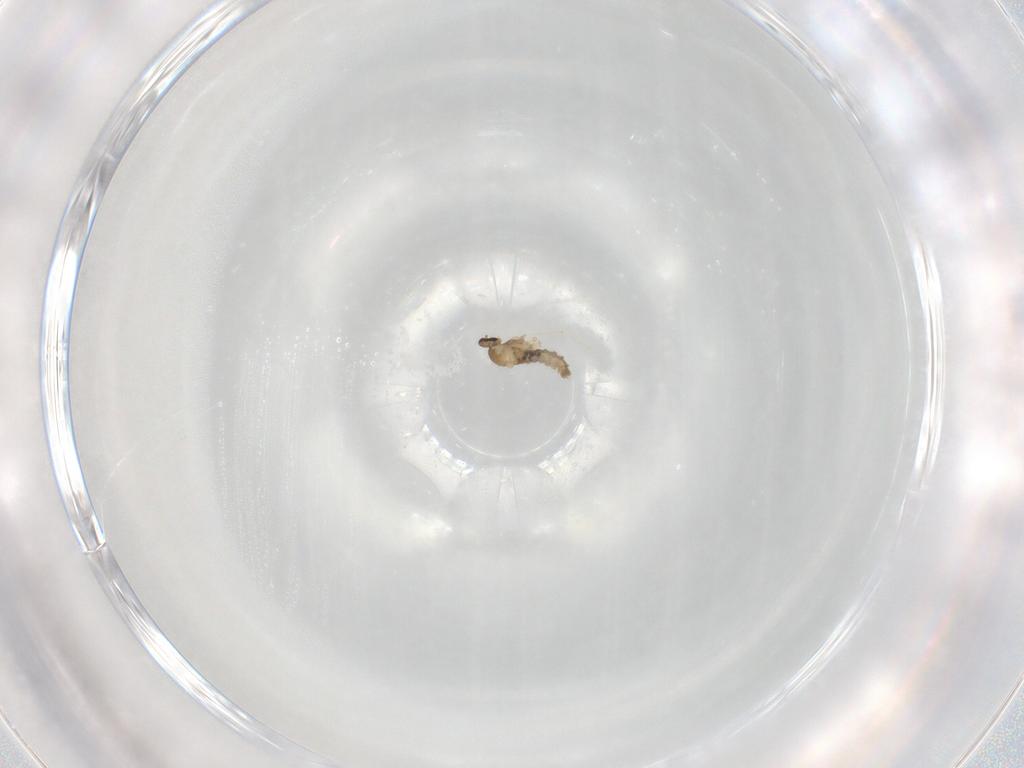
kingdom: Animalia
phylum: Arthropoda
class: Insecta
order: Diptera
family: Cecidomyiidae
